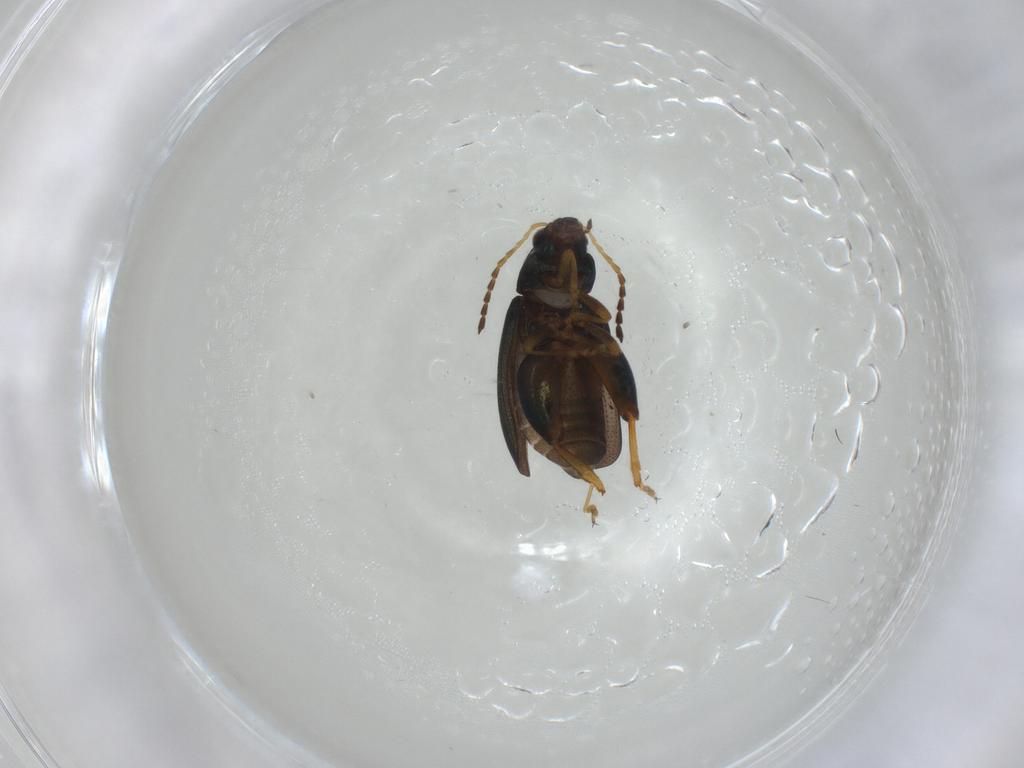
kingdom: Animalia
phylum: Arthropoda
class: Insecta
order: Coleoptera
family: Chrysomelidae
